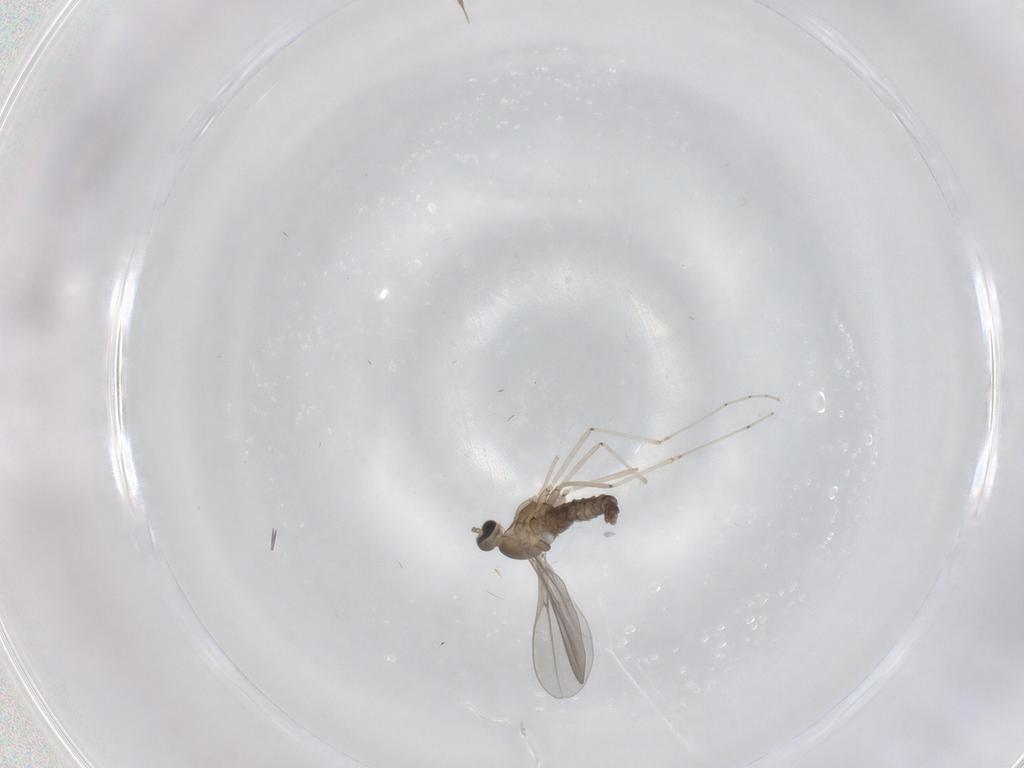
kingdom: Animalia
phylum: Arthropoda
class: Insecta
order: Diptera
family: Cecidomyiidae
